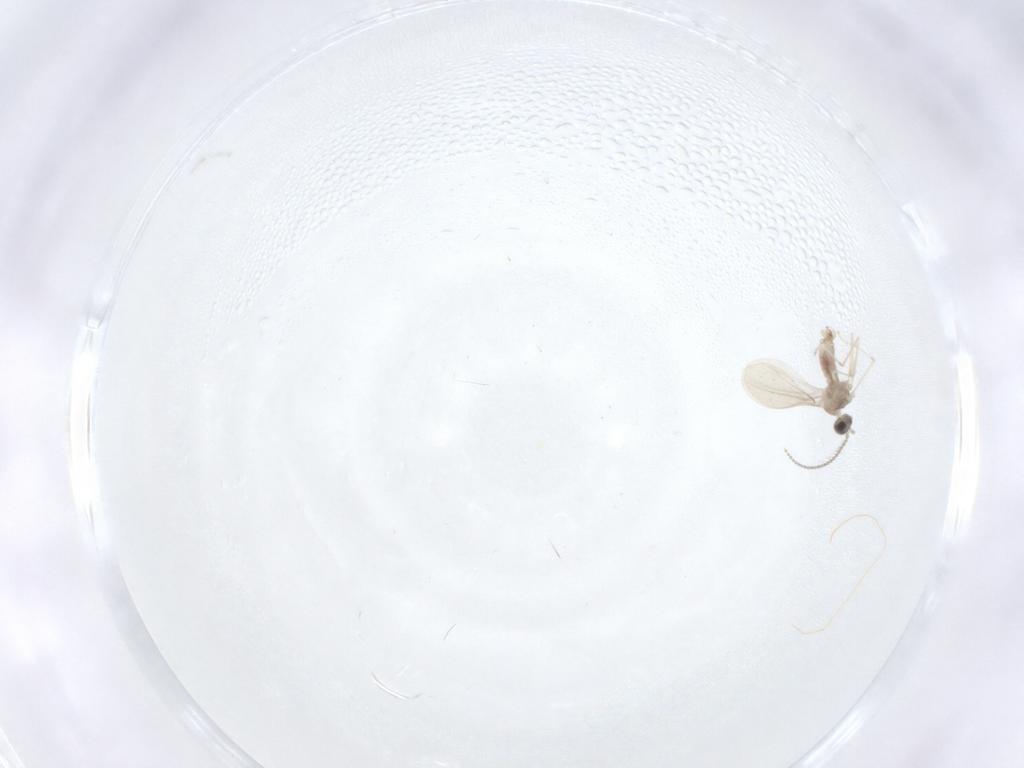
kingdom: Animalia
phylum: Arthropoda
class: Insecta
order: Diptera
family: Cecidomyiidae
